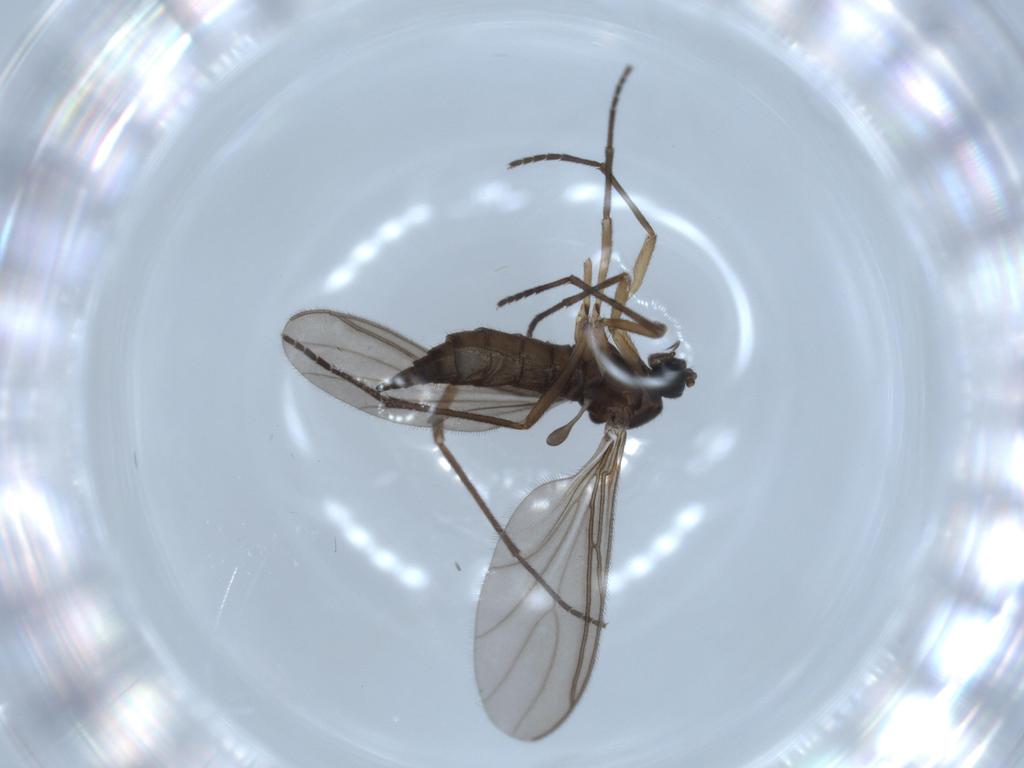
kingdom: Animalia
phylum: Arthropoda
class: Insecta
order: Diptera
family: Sciaridae
